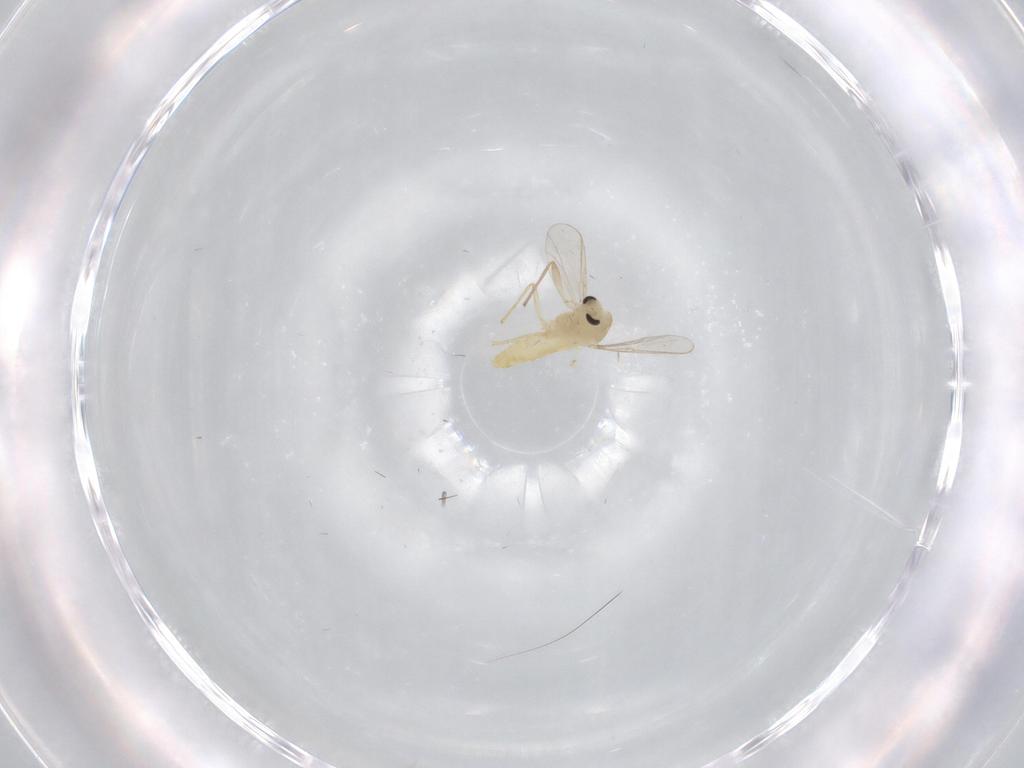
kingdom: Animalia
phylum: Arthropoda
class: Insecta
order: Diptera
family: Chironomidae
